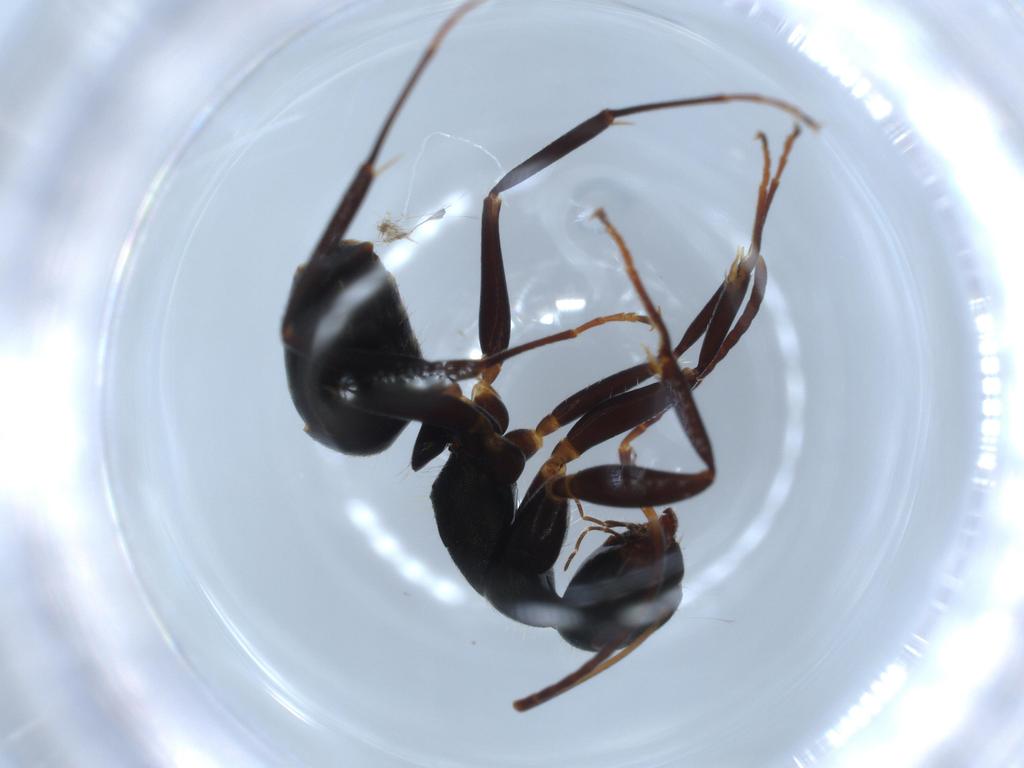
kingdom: Animalia
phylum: Arthropoda
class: Insecta
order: Hymenoptera
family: Formicidae
